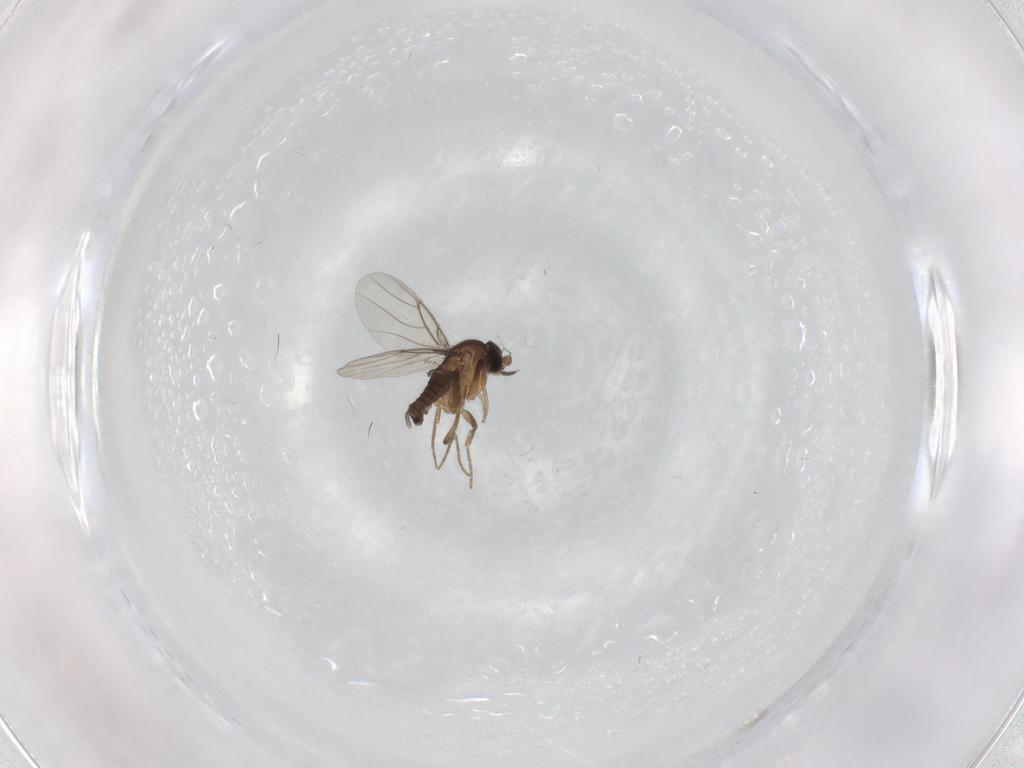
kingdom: Animalia
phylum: Arthropoda
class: Insecta
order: Diptera
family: Phoridae
